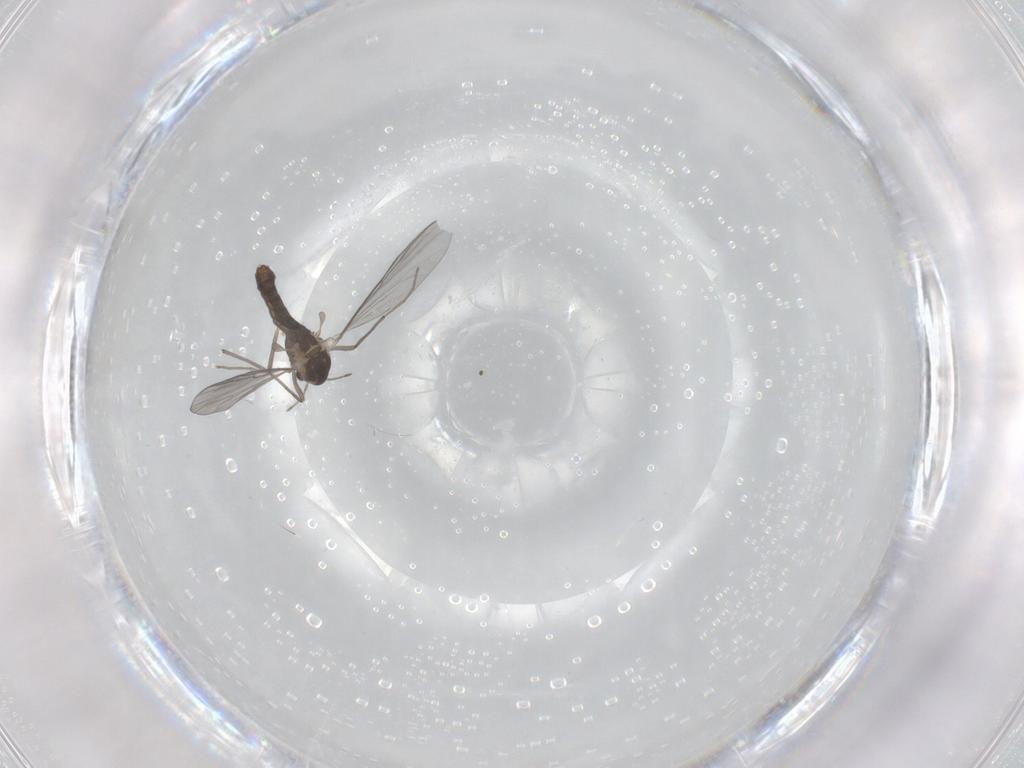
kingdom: Animalia
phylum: Arthropoda
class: Insecta
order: Diptera
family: Chironomidae
